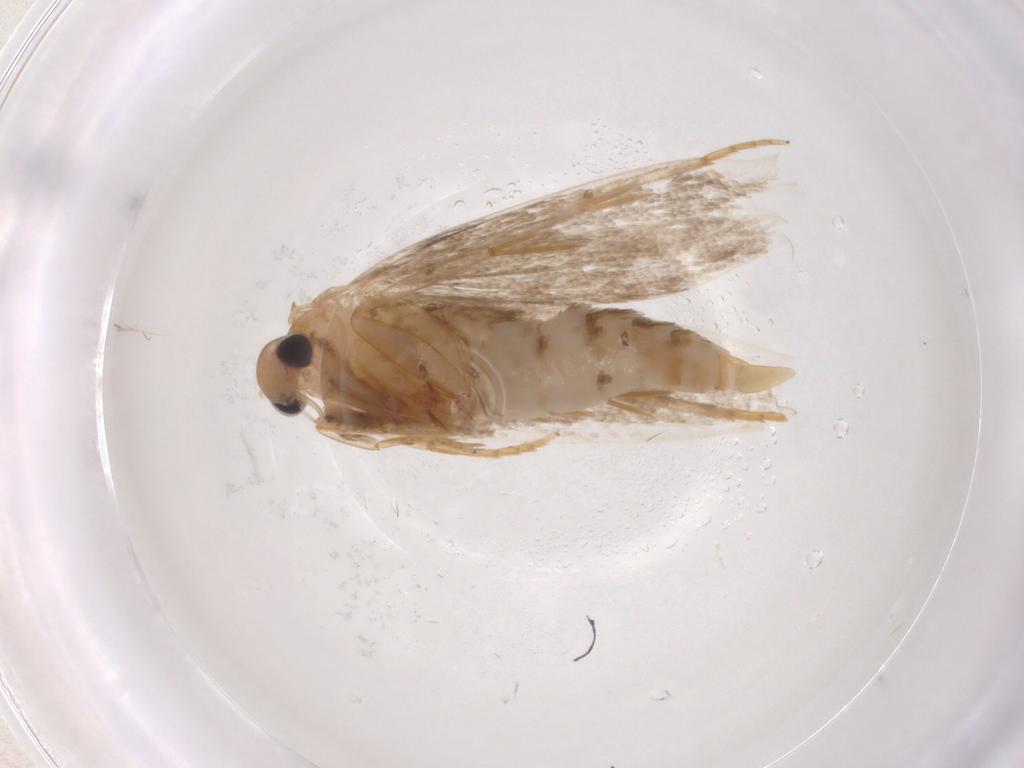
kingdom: Animalia
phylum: Arthropoda
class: Insecta
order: Lepidoptera
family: Autostichidae
